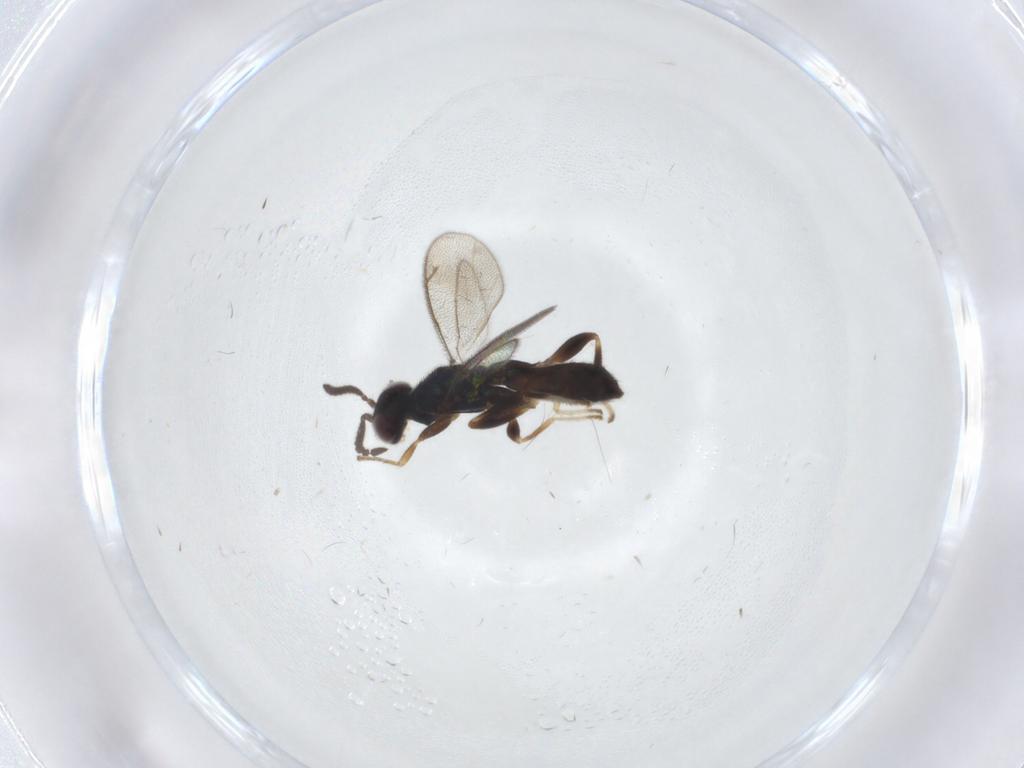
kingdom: Animalia
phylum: Arthropoda
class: Insecta
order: Hymenoptera
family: Cleonyminae
